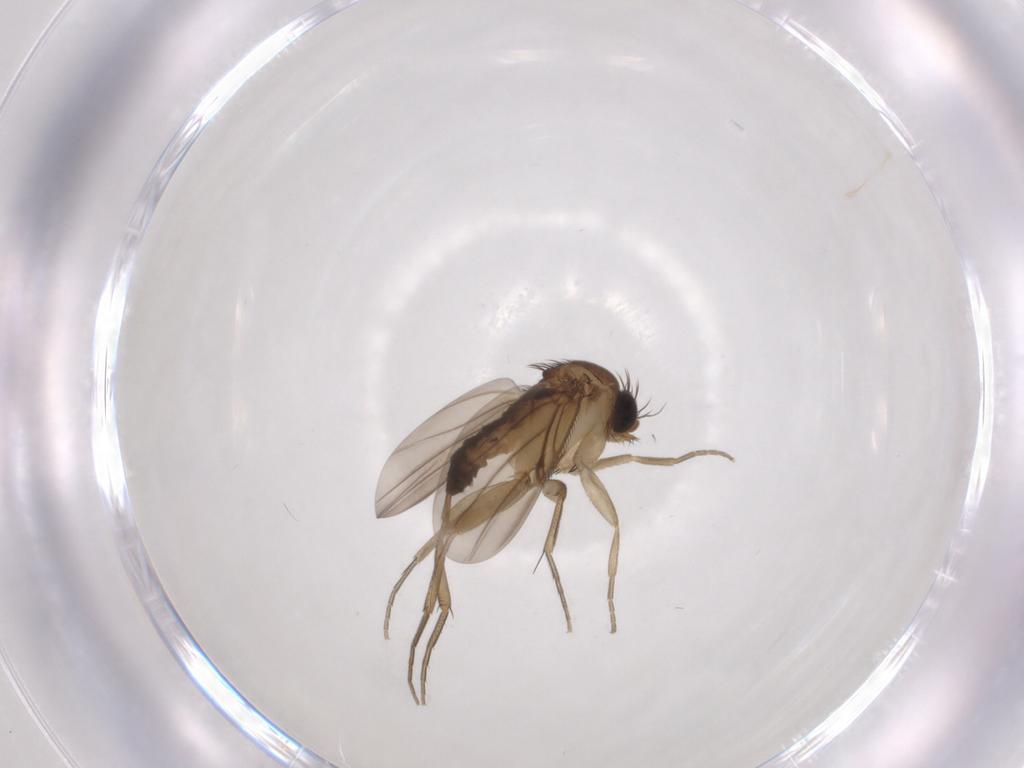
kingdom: Animalia
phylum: Arthropoda
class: Insecta
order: Diptera
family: Phoridae
